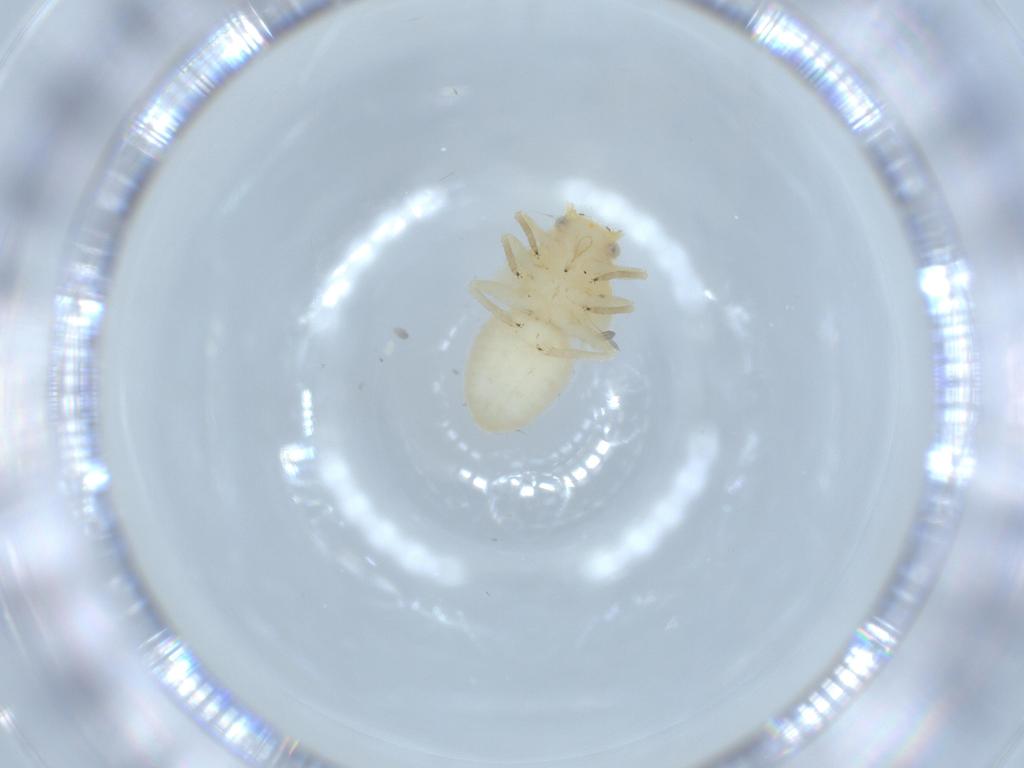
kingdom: Animalia
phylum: Arthropoda
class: Insecta
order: Hemiptera
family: Psyllidae
